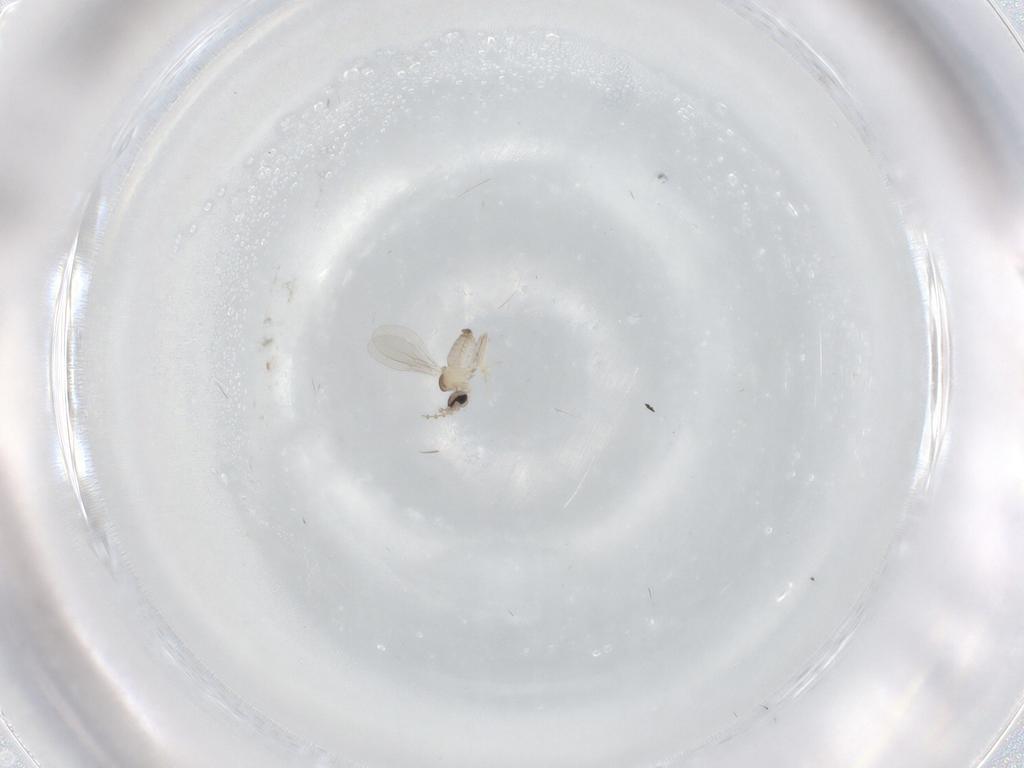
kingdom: Animalia
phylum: Arthropoda
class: Insecta
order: Diptera
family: Cecidomyiidae
